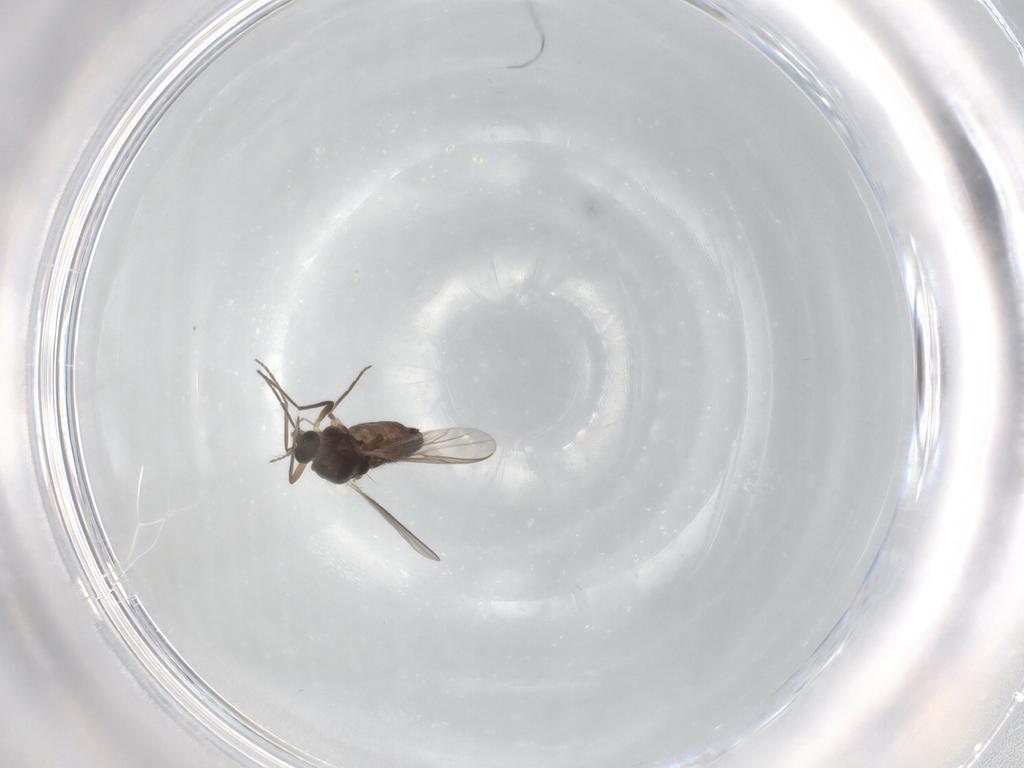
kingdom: Animalia
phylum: Arthropoda
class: Insecta
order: Diptera
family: Chironomidae
